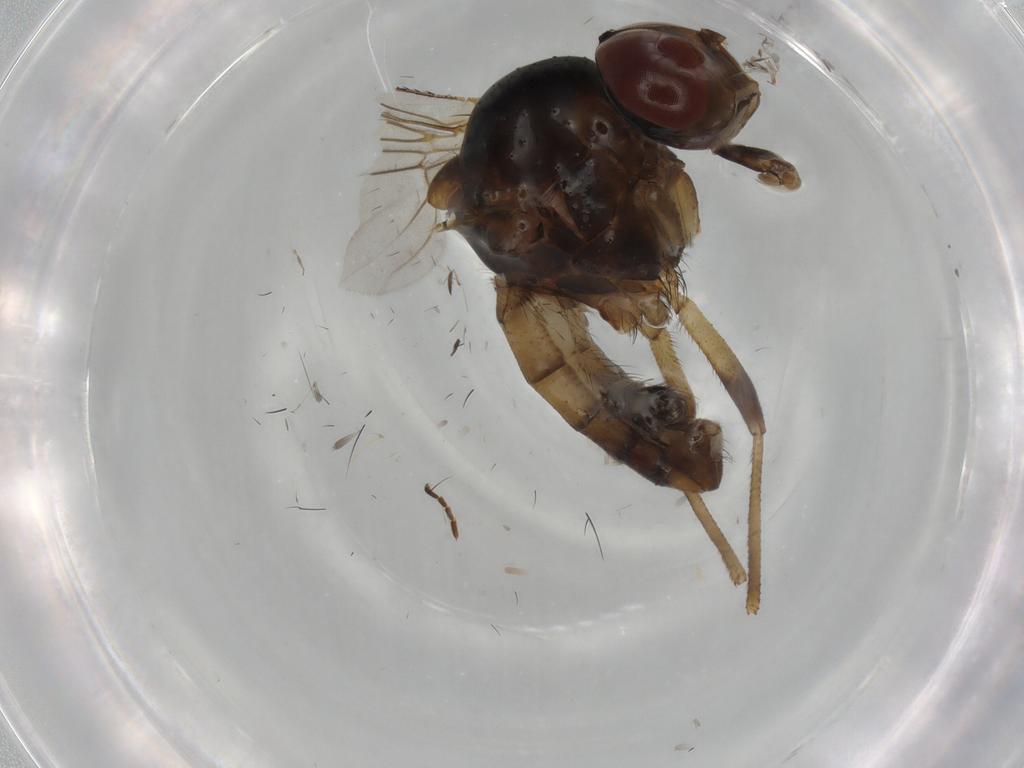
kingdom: Animalia
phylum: Arthropoda
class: Insecta
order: Diptera
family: Anthomyiidae
